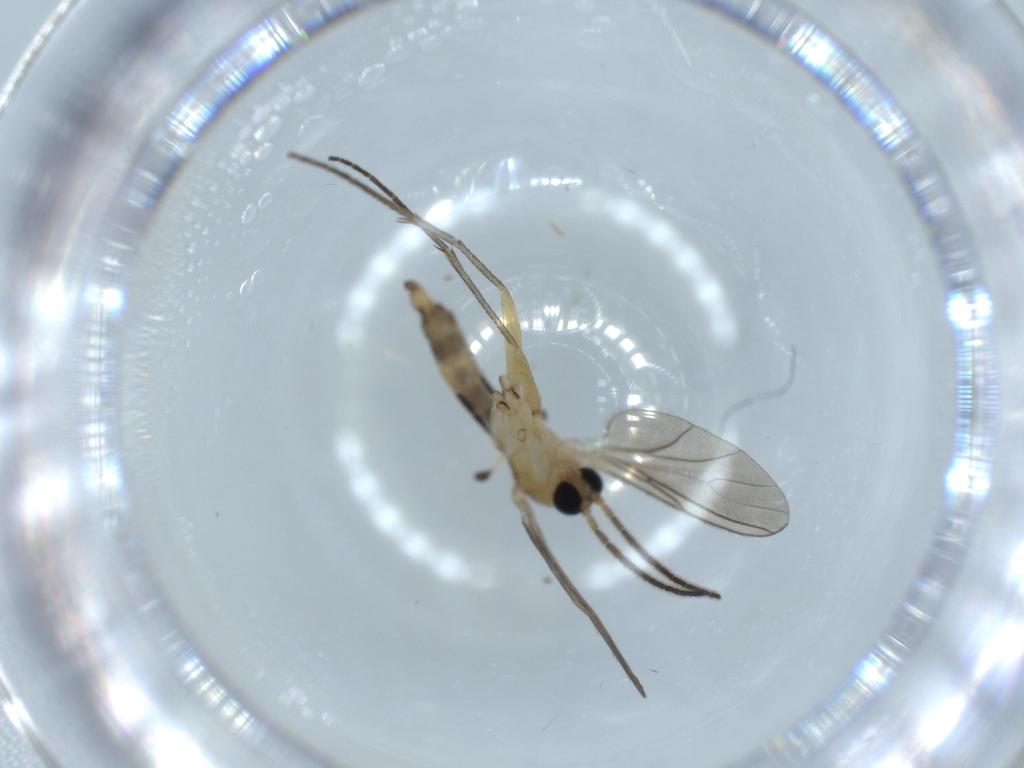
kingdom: Animalia
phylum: Arthropoda
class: Insecta
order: Diptera
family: Sciaridae
